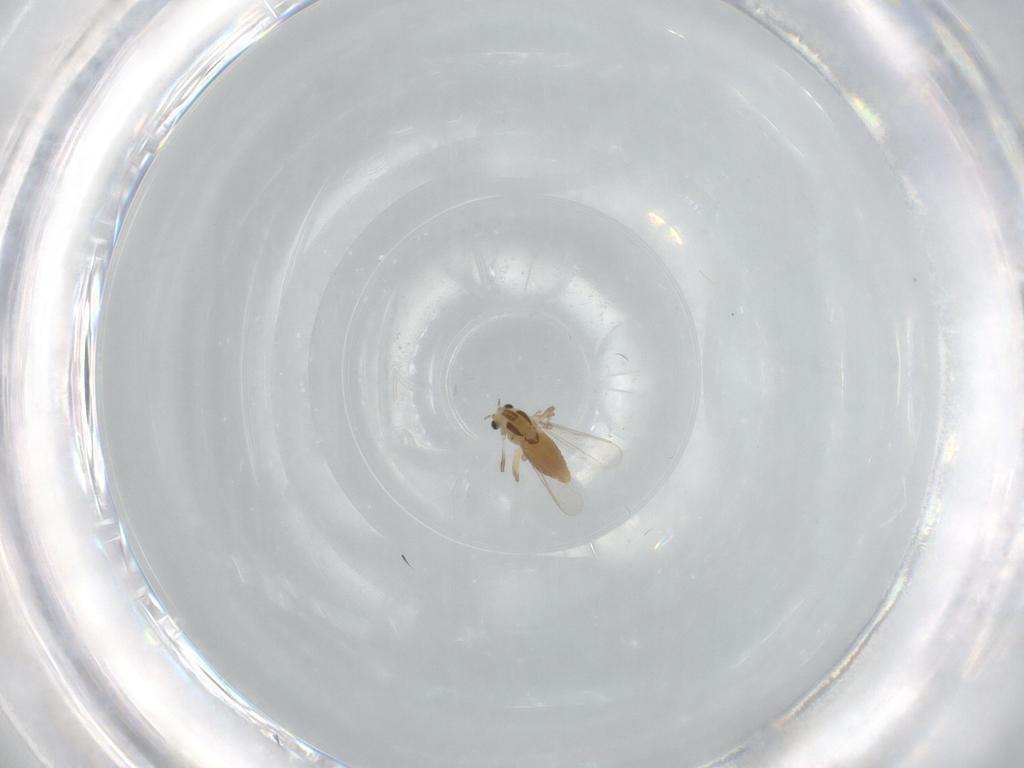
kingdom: Animalia
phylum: Arthropoda
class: Insecta
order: Diptera
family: Chironomidae
